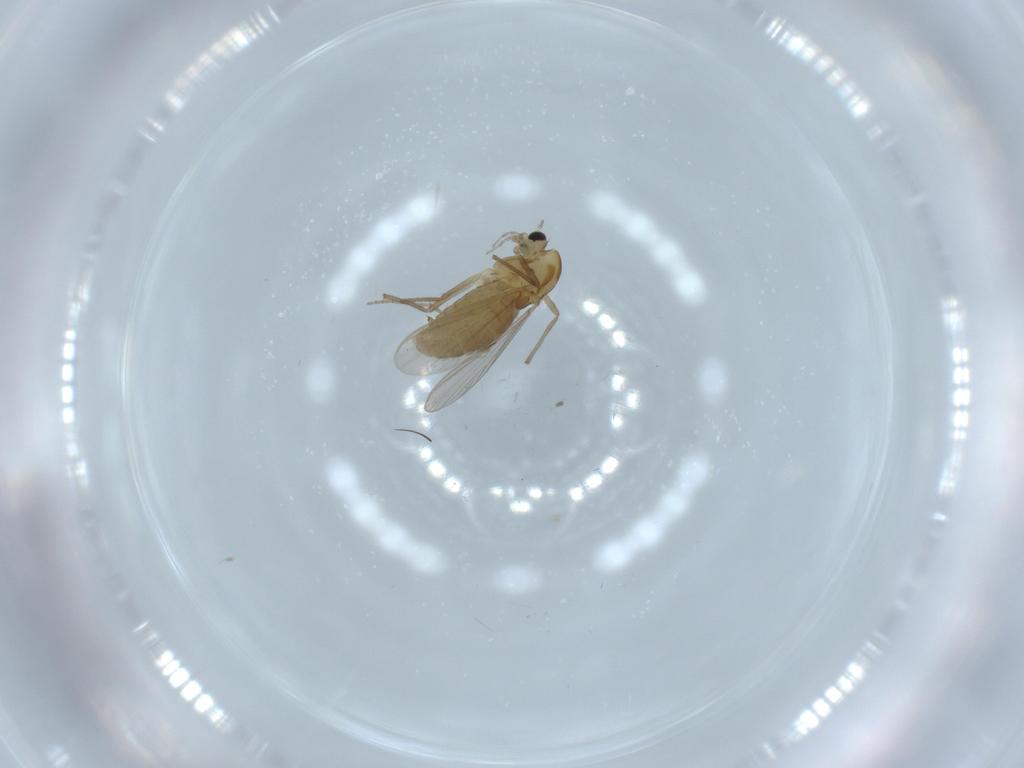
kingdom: Animalia
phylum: Arthropoda
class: Insecta
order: Diptera
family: Chironomidae
